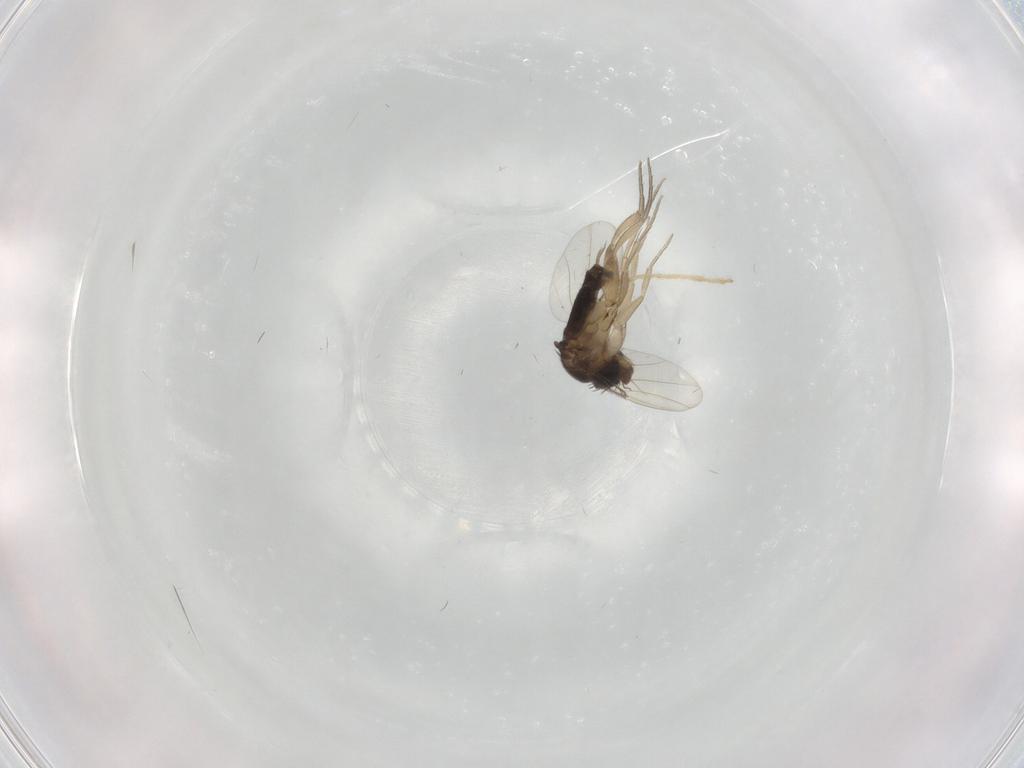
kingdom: Animalia
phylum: Arthropoda
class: Insecta
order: Diptera
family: Phoridae
